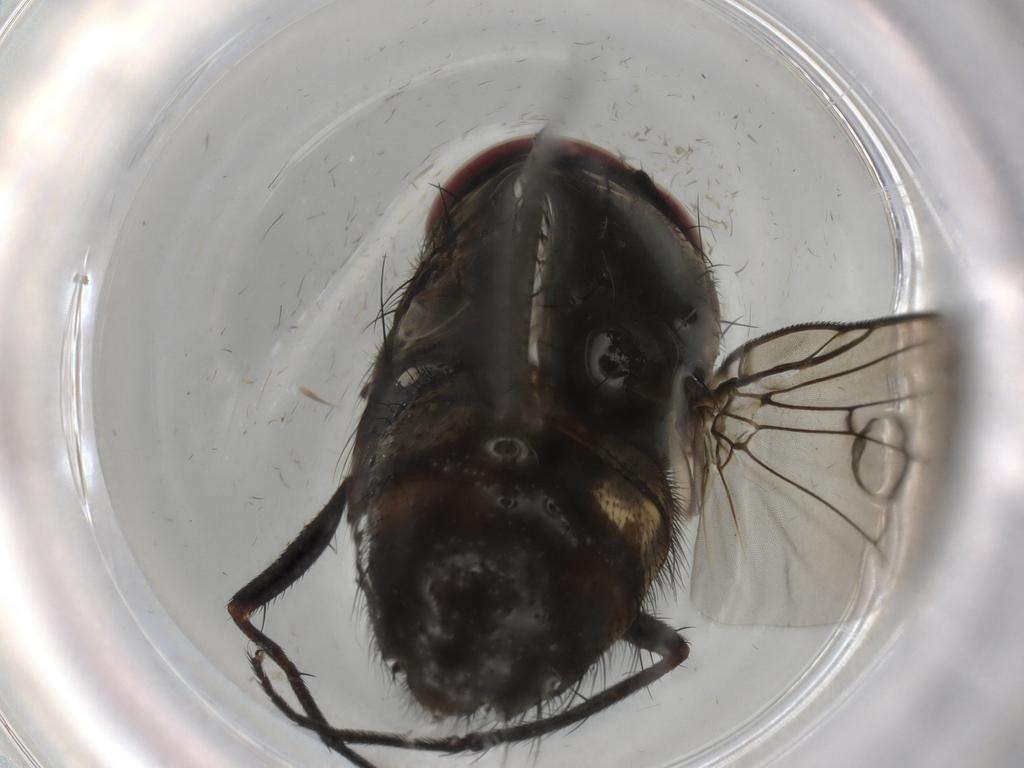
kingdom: Animalia
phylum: Arthropoda
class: Insecta
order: Diptera
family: Muscidae
